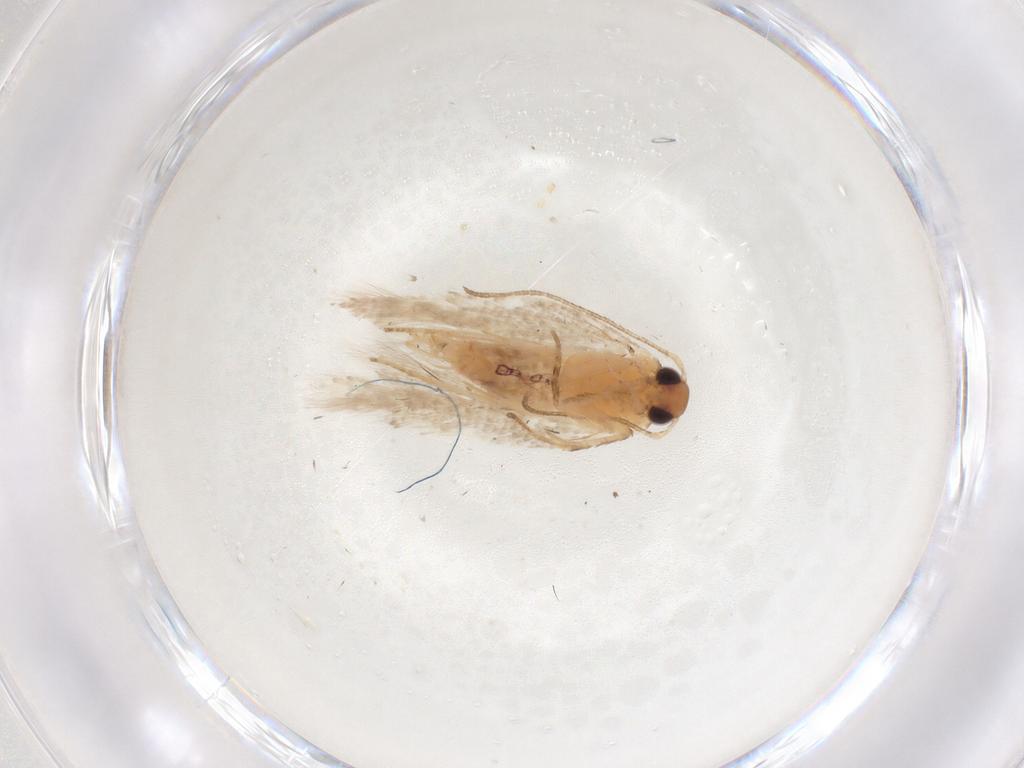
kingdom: Animalia
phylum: Arthropoda
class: Insecta
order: Lepidoptera
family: Gelechiidae
